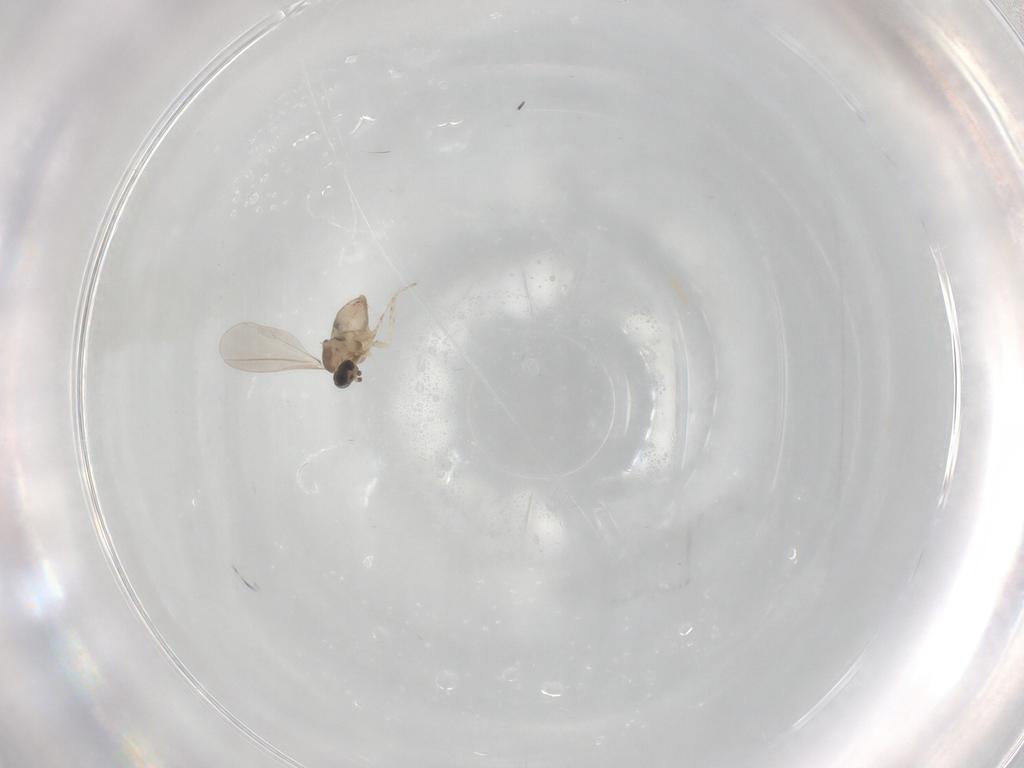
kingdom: Animalia
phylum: Arthropoda
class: Insecta
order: Diptera
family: Cecidomyiidae
